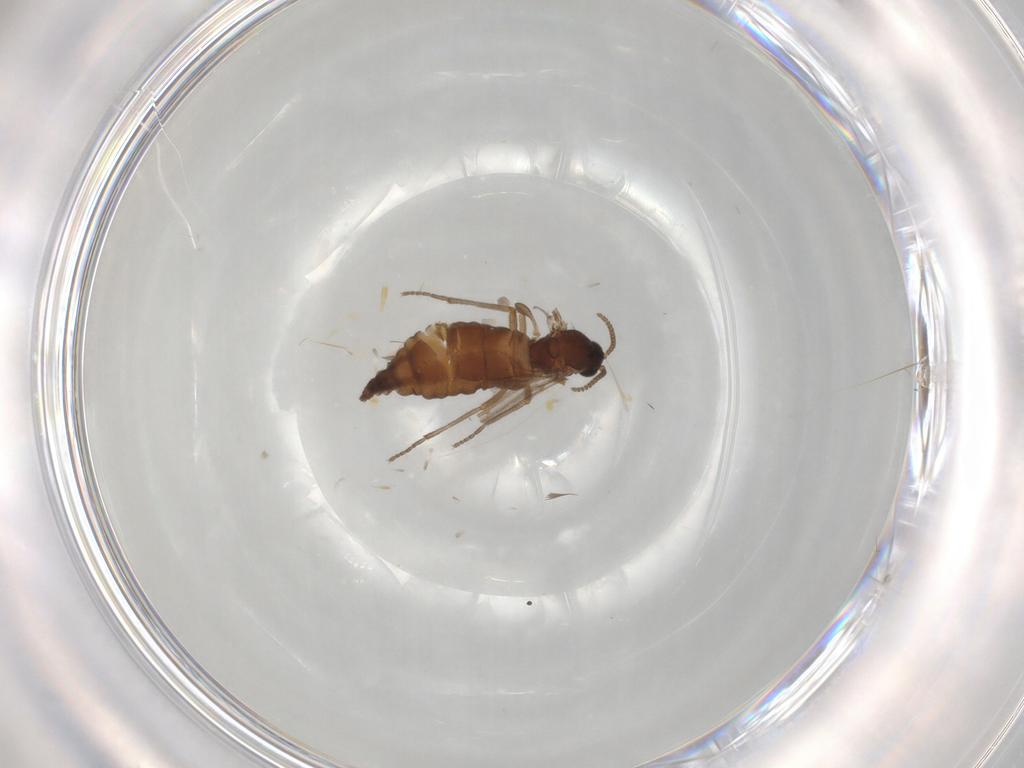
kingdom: Animalia
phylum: Arthropoda
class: Insecta
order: Diptera
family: Sciaridae
